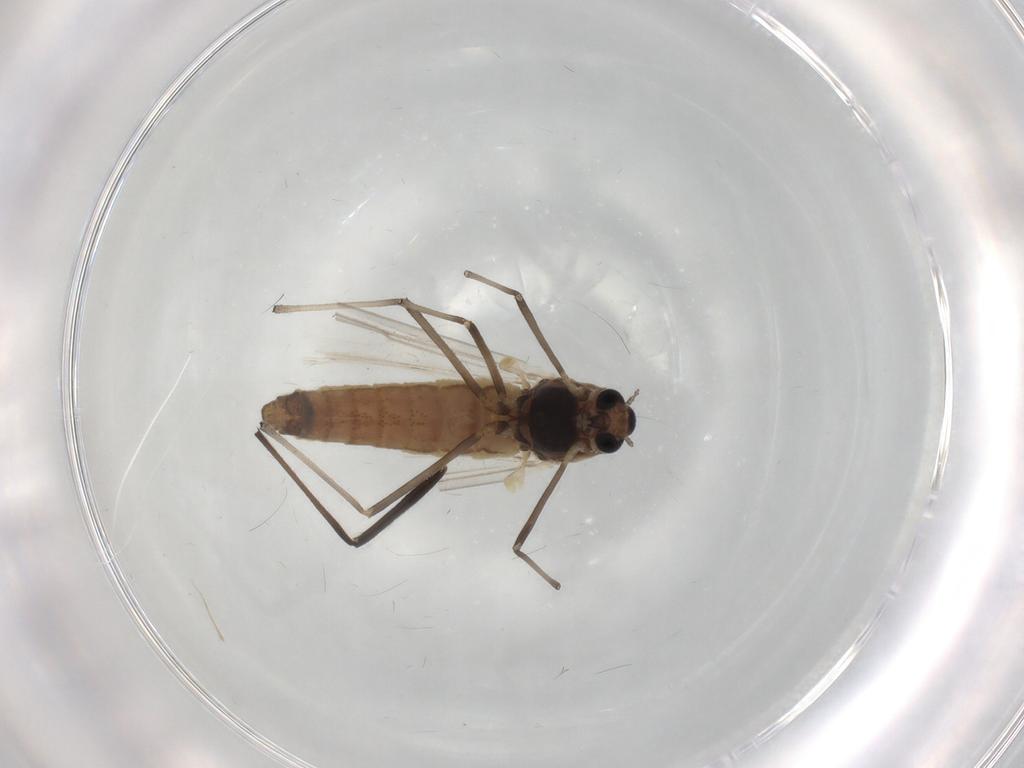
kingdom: Animalia
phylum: Arthropoda
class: Insecta
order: Diptera
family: Chironomidae
